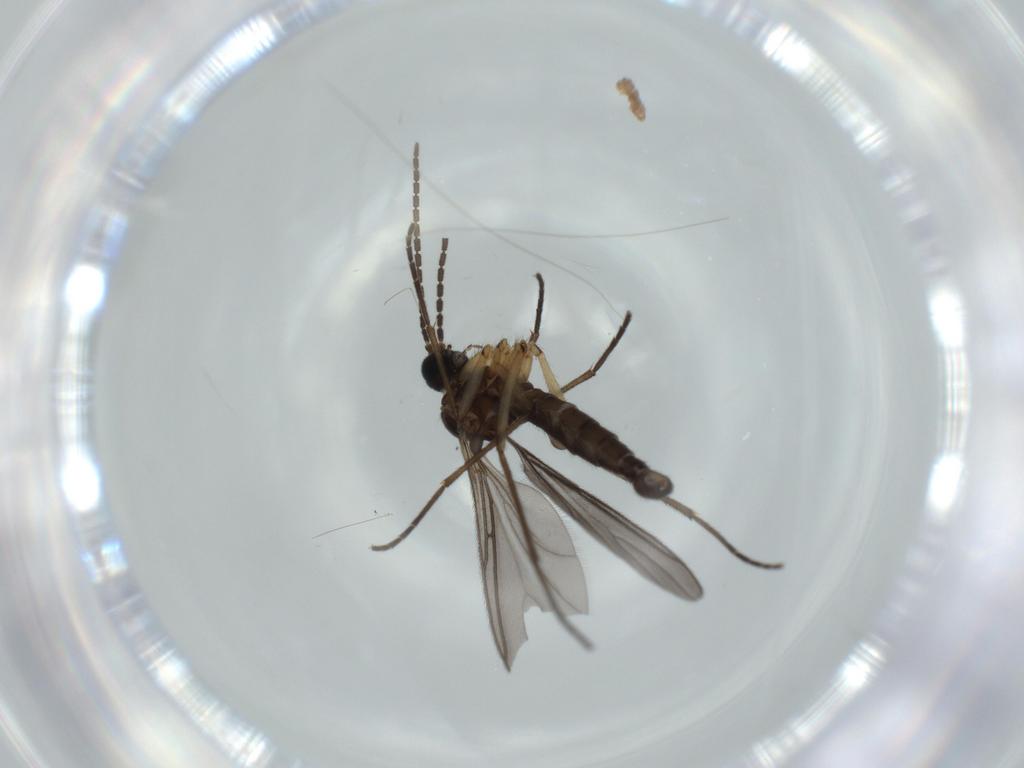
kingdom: Animalia
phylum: Arthropoda
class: Insecta
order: Diptera
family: Sciaridae
